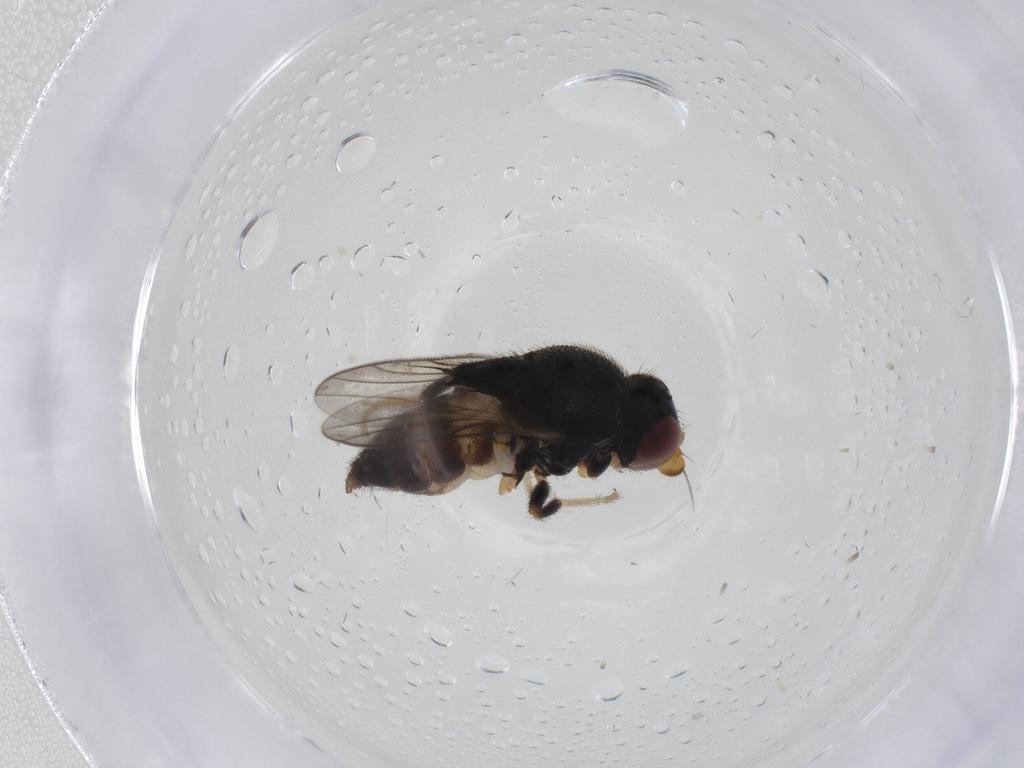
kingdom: Animalia
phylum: Arthropoda
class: Insecta
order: Diptera
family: Chloropidae
